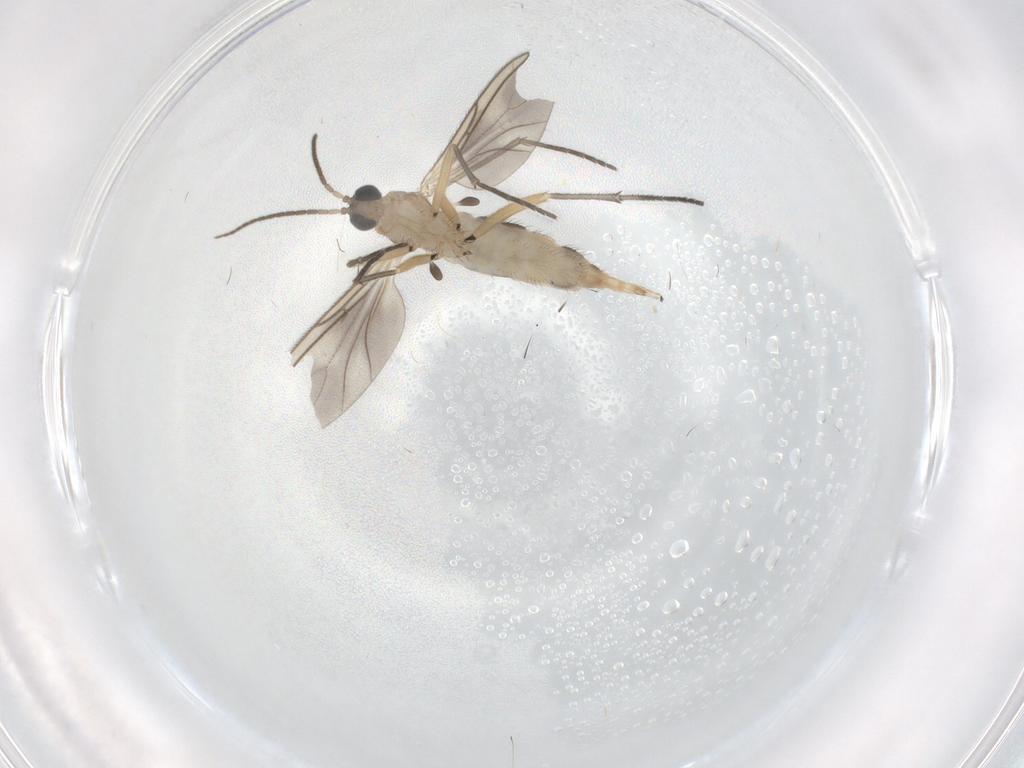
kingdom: Animalia
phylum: Arthropoda
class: Insecta
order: Diptera
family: Sciaridae
